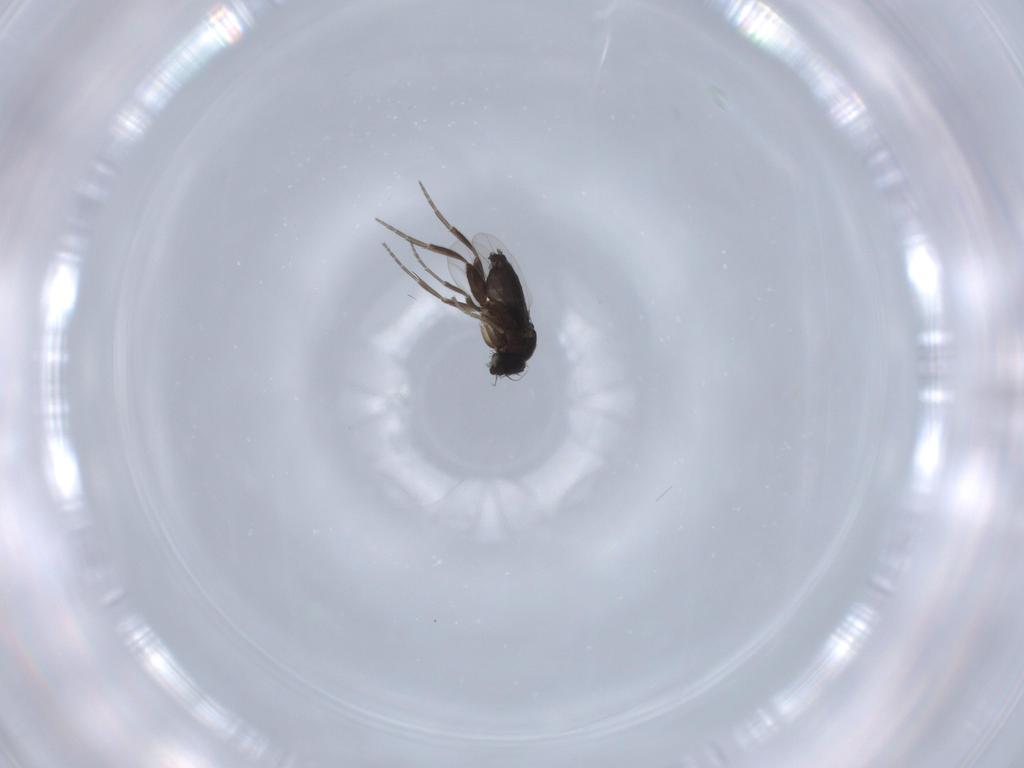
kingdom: Animalia
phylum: Arthropoda
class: Insecta
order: Diptera
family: Phoridae
